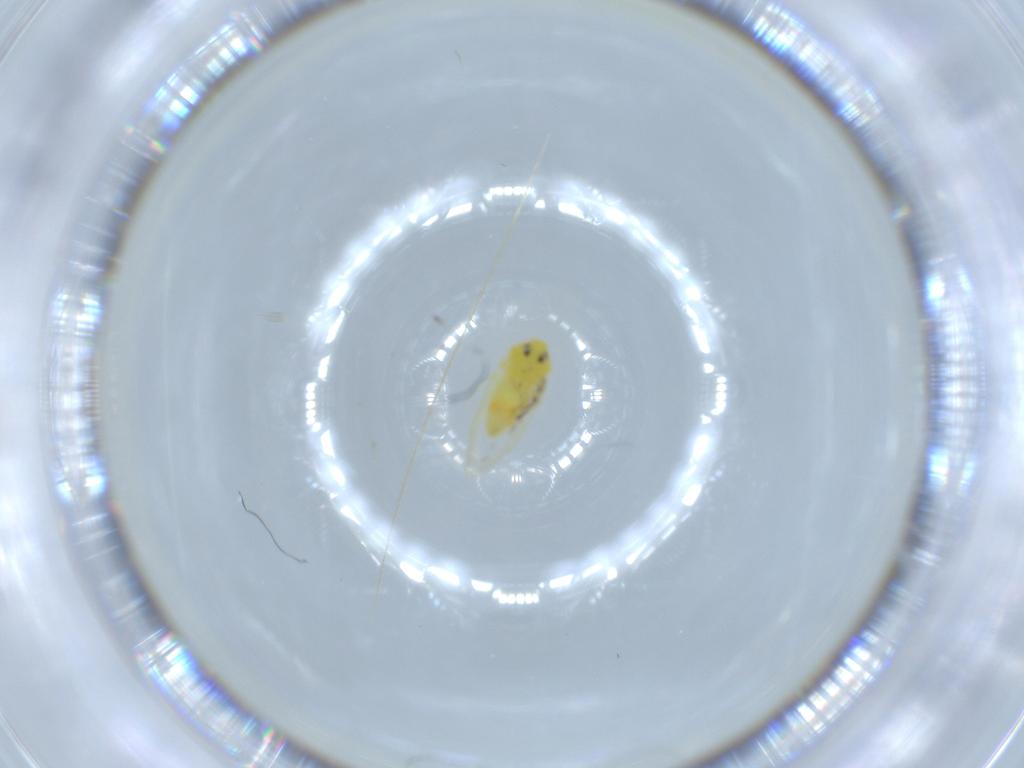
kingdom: Animalia
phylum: Arthropoda
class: Insecta
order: Hemiptera
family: Aleyrodidae
